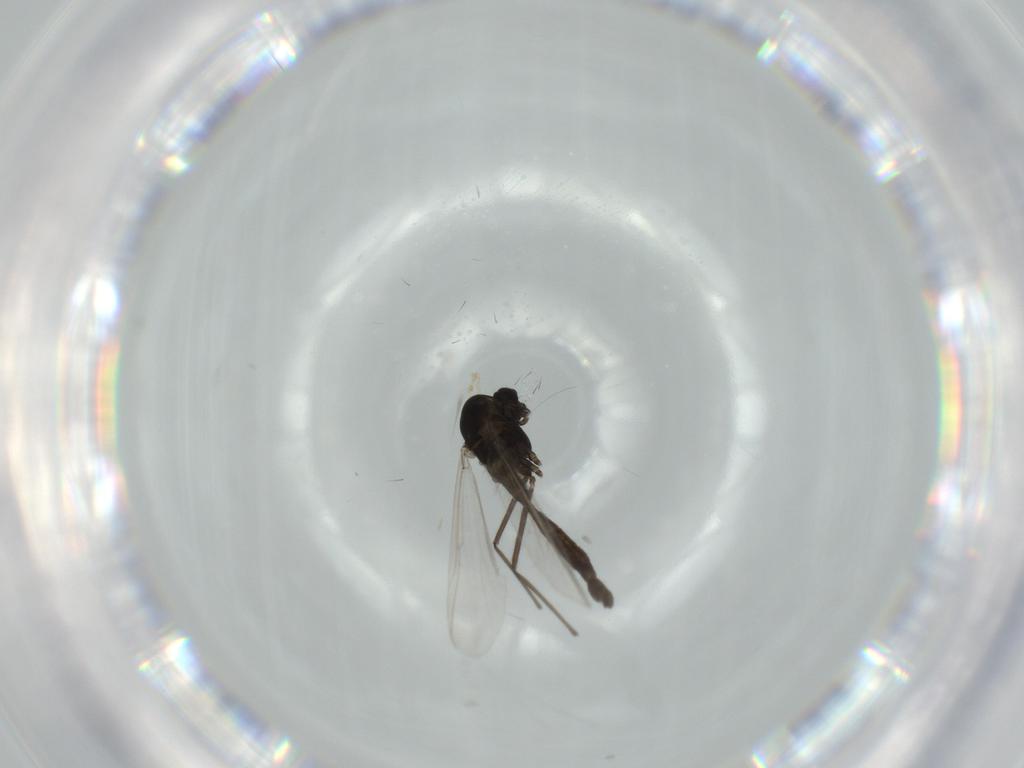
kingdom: Animalia
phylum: Arthropoda
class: Insecta
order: Diptera
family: Chironomidae
